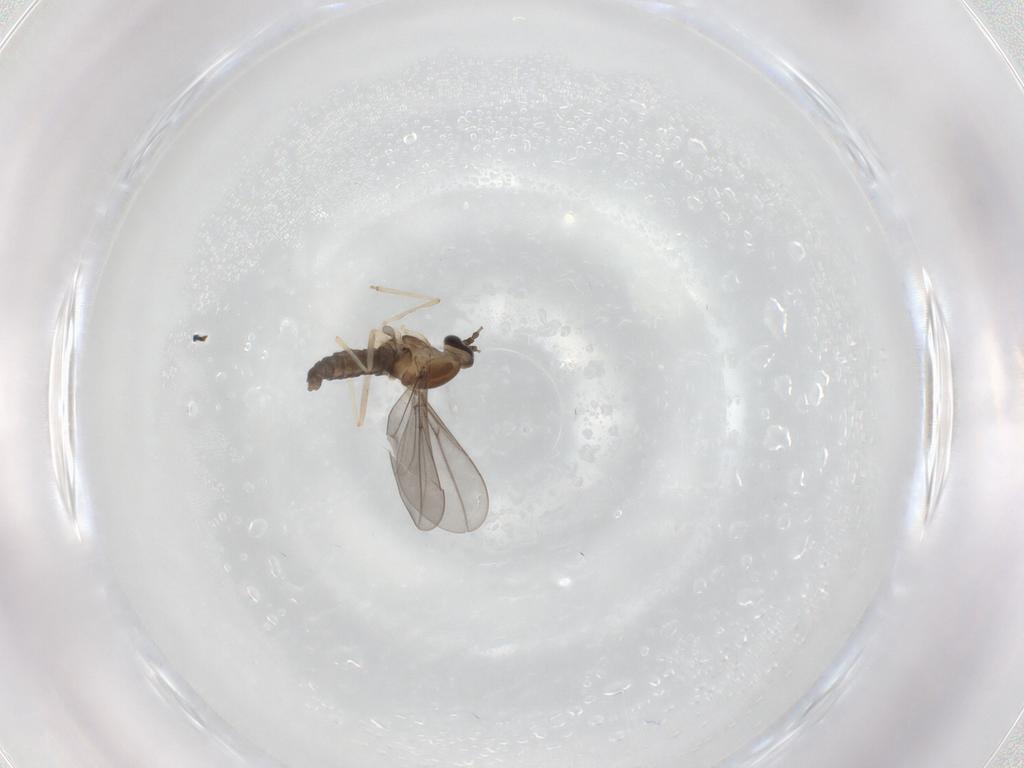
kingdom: Animalia
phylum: Arthropoda
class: Insecta
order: Diptera
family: Cecidomyiidae
